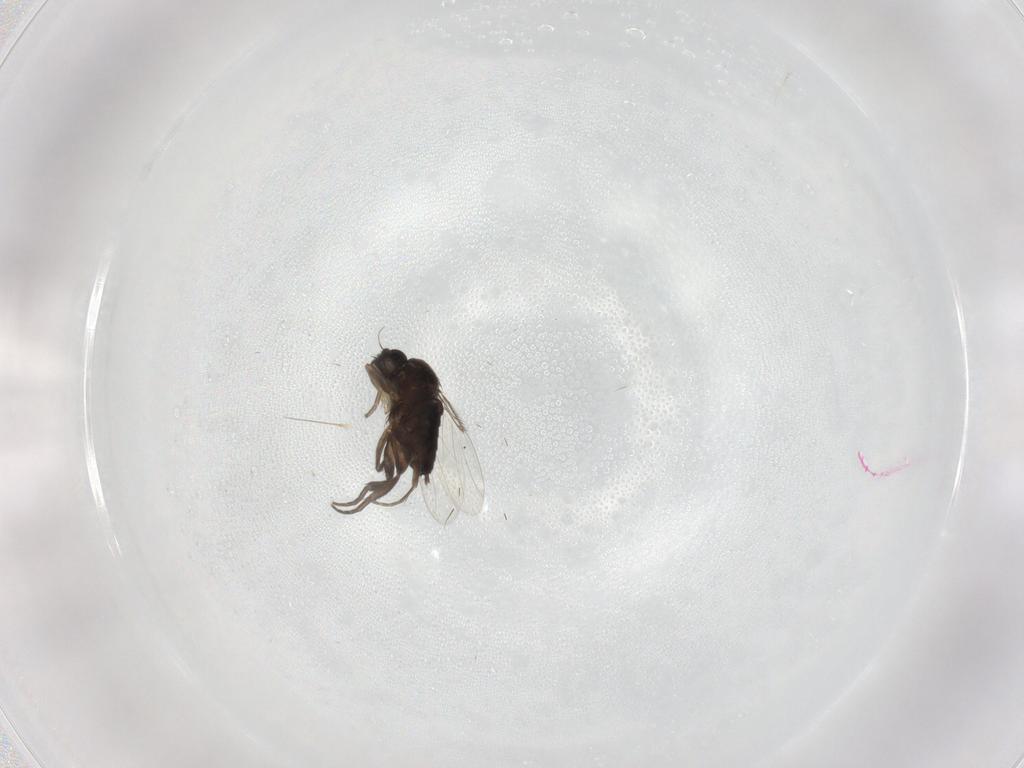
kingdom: Animalia
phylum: Arthropoda
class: Insecta
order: Diptera
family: Phoridae
